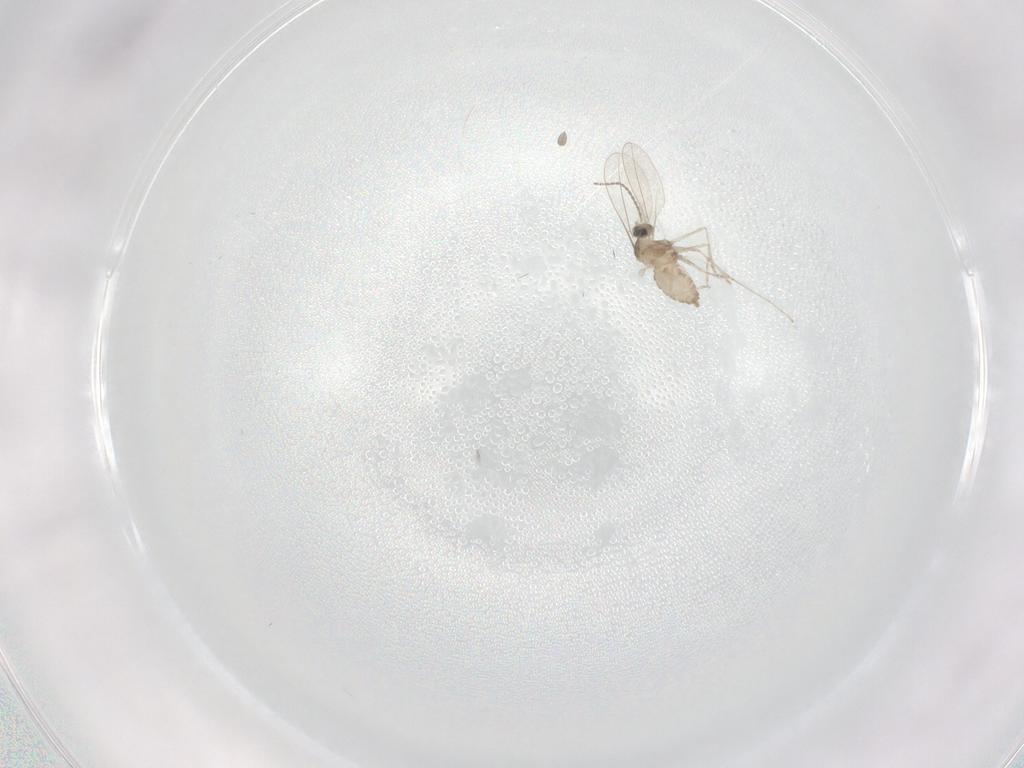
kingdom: Animalia
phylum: Arthropoda
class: Insecta
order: Diptera
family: Cecidomyiidae
